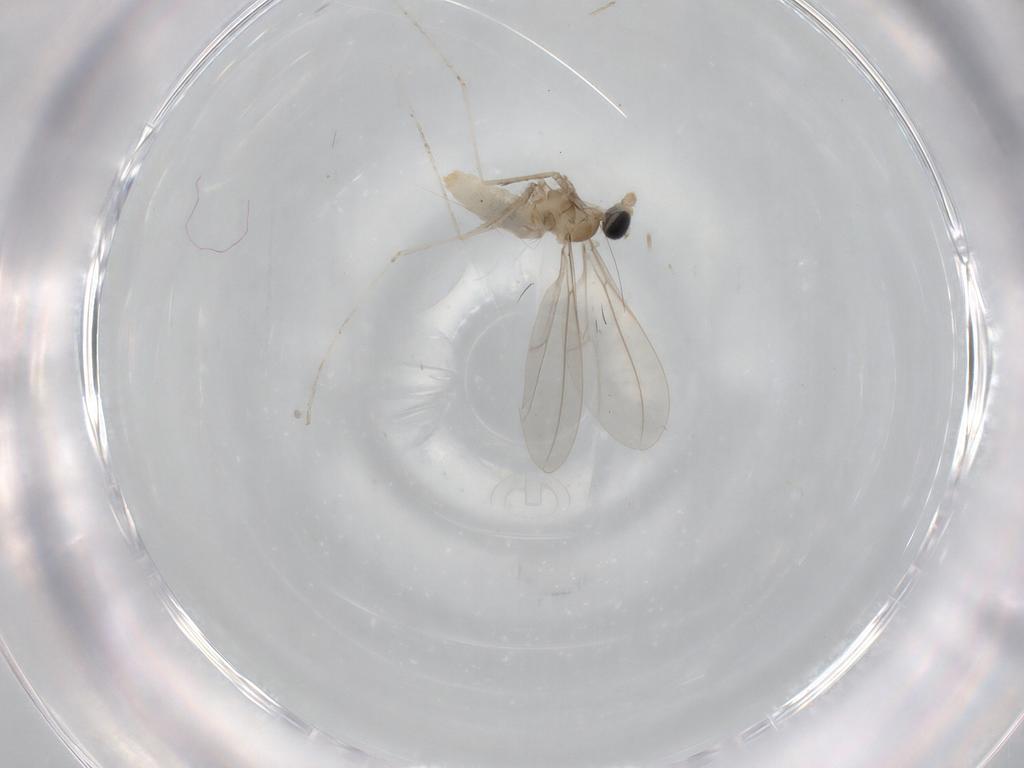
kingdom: Animalia
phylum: Arthropoda
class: Insecta
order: Diptera
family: Cecidomyiidae
